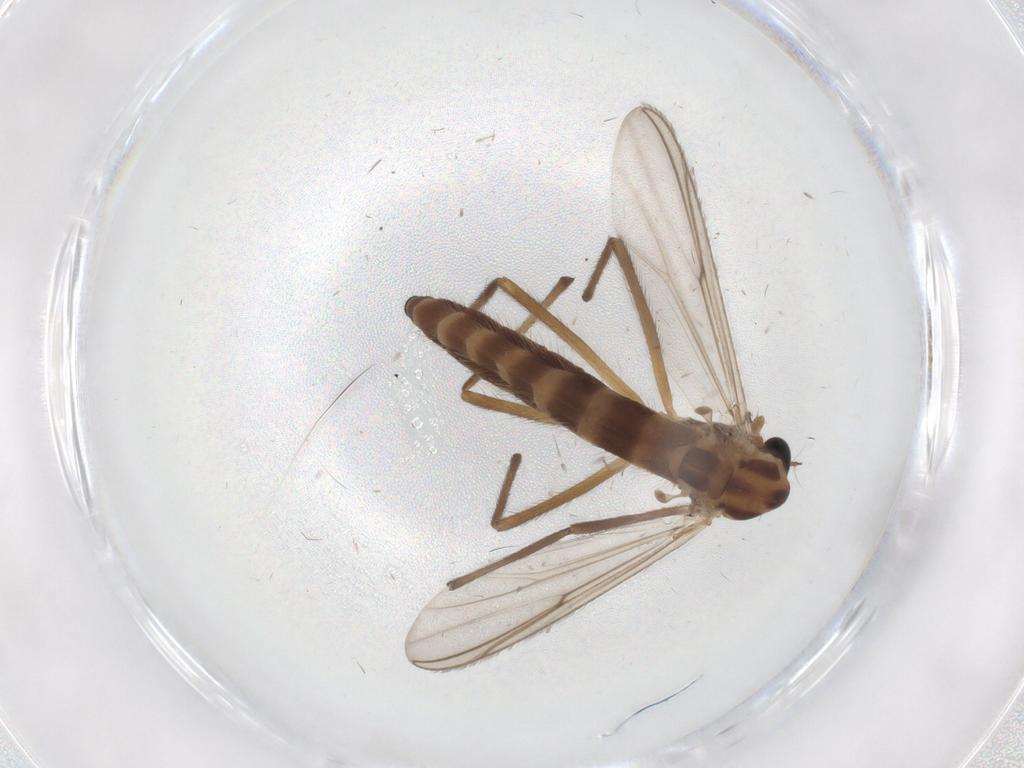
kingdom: Animalia
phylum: Arthropoda
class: Insecta
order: Diptera
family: Chironomidae
